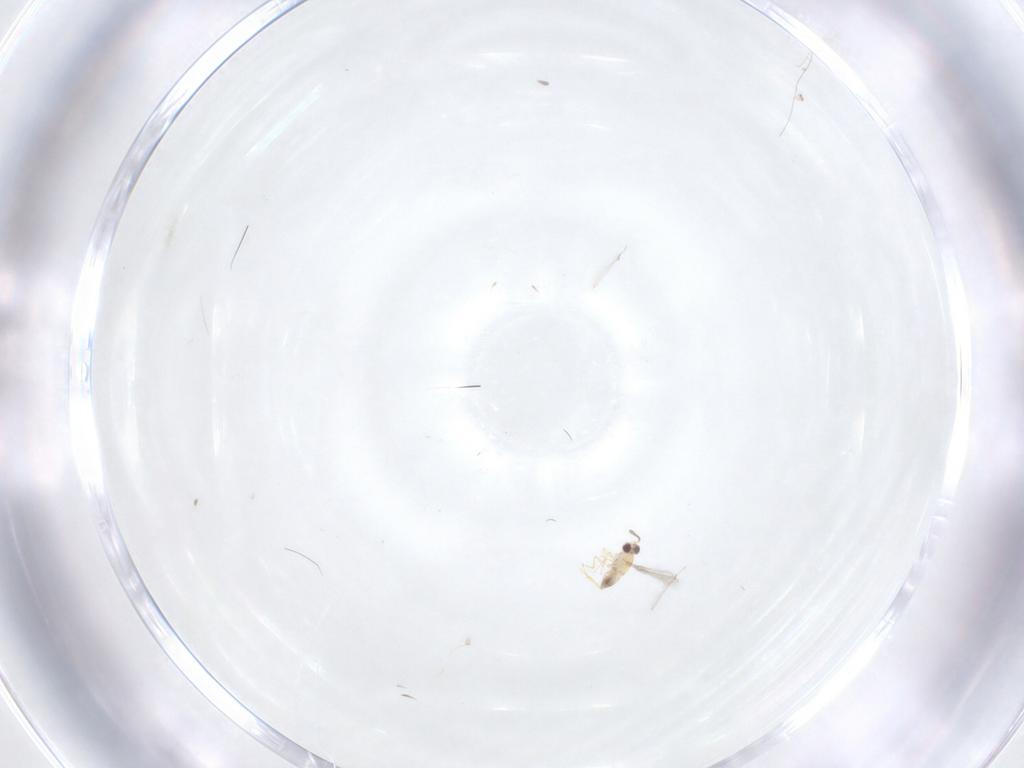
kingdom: Animalia
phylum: Arthropoda
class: Insecta
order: Hymenoptera
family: Mymaridae
